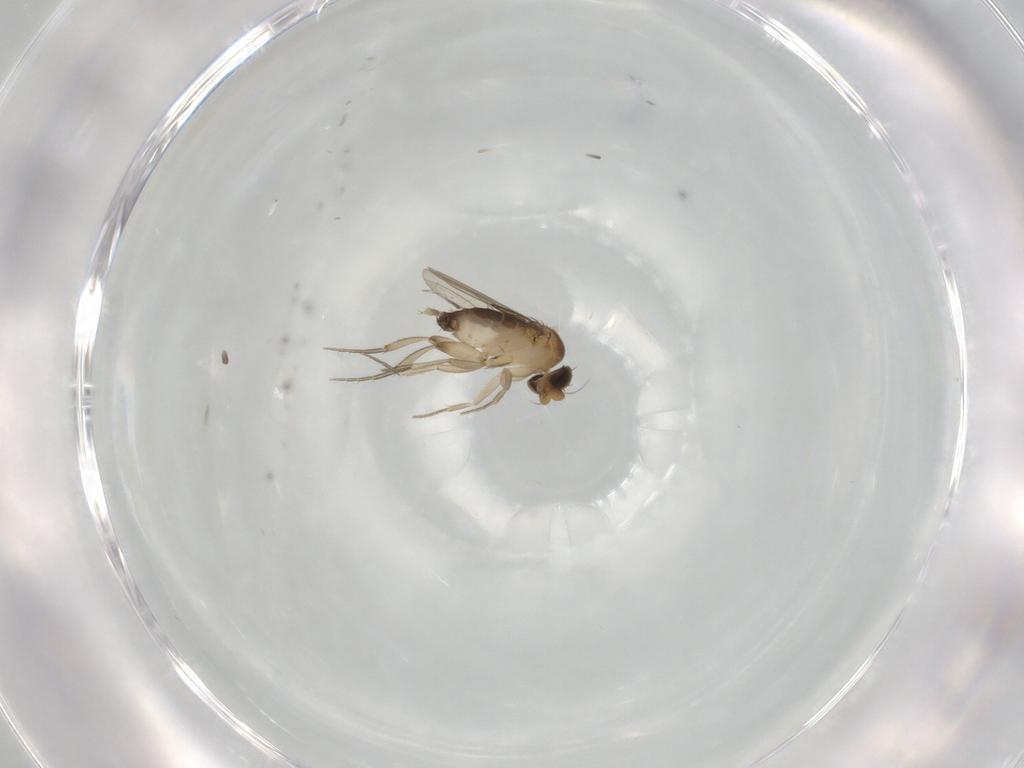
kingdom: Animalia
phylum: Arthropoda
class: Insecta
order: Diptera
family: Phoridae
